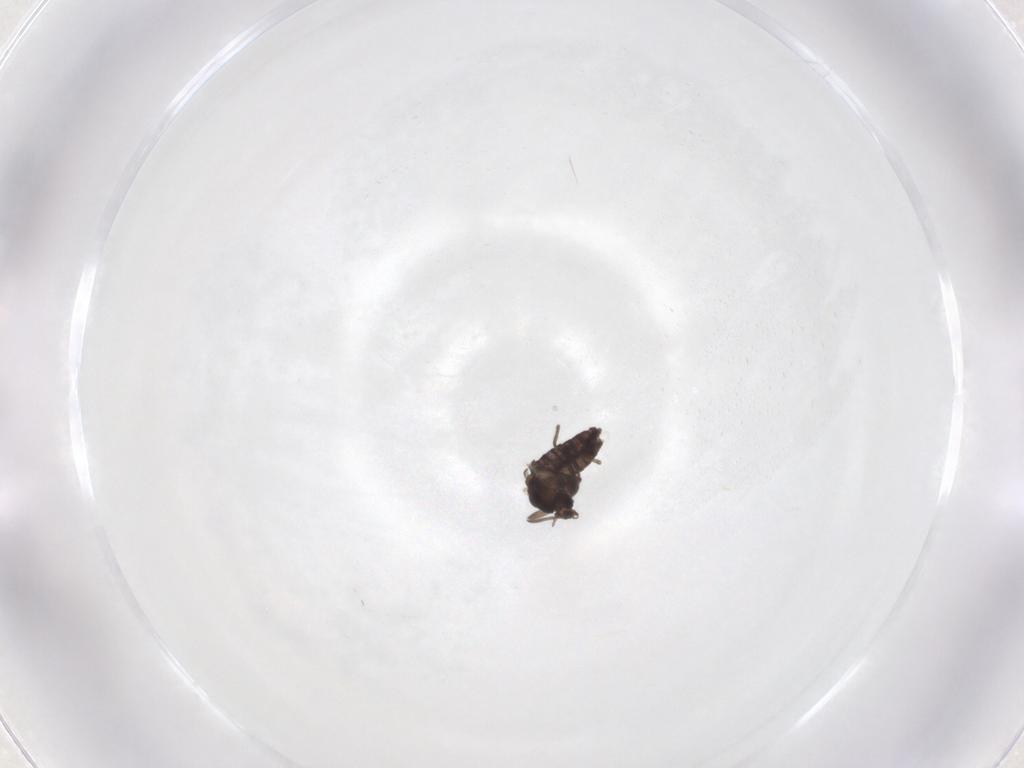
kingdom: Animalia
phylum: Arthropoda
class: Insecta
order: Diptera
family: Chironomidae
